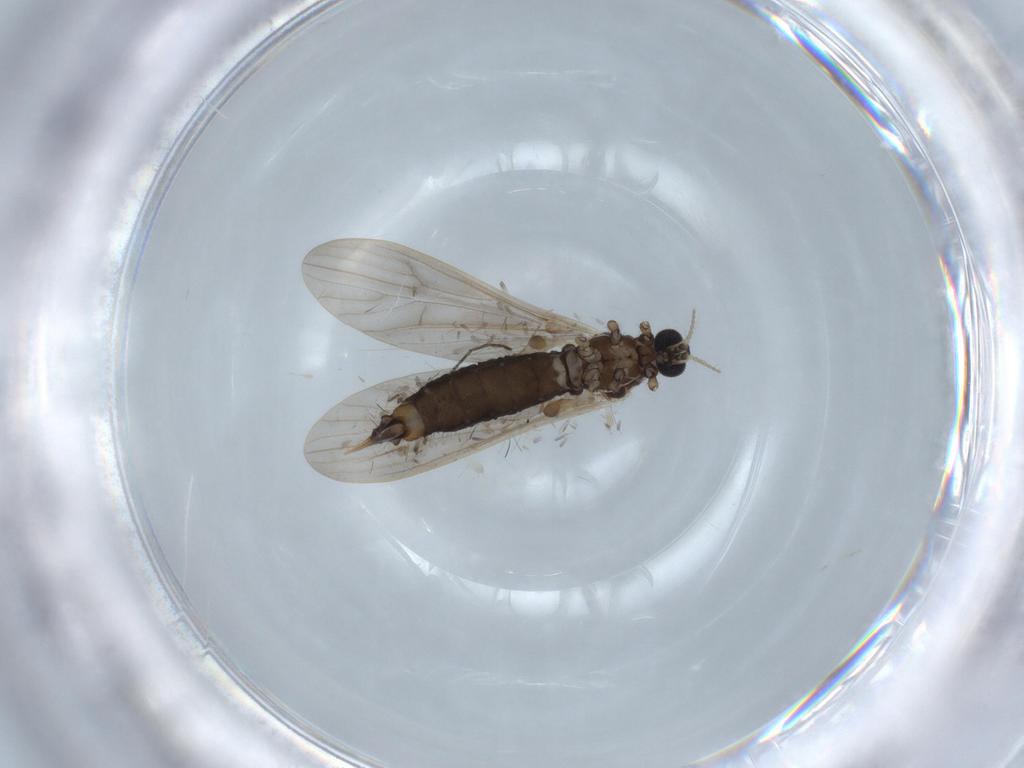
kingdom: Animalia
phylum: Arthropoda
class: Insecta
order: Diptera
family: Limoniidae
